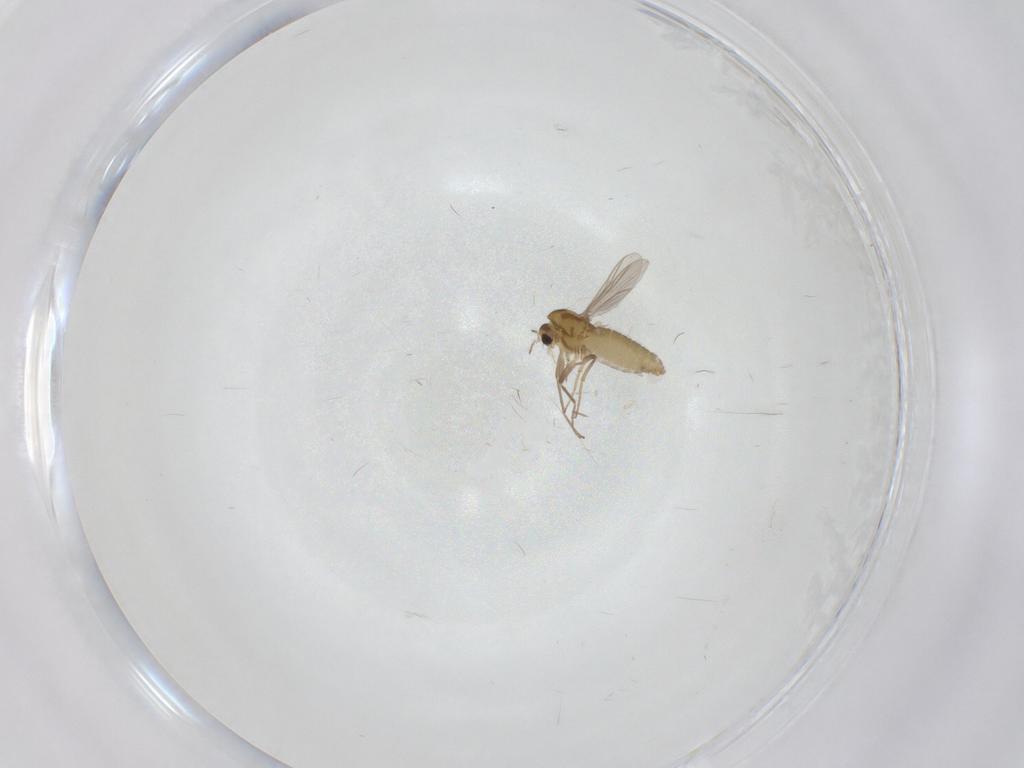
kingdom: Animalia
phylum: Arthropoda
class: Insecta
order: Diptera
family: Chironomidae
